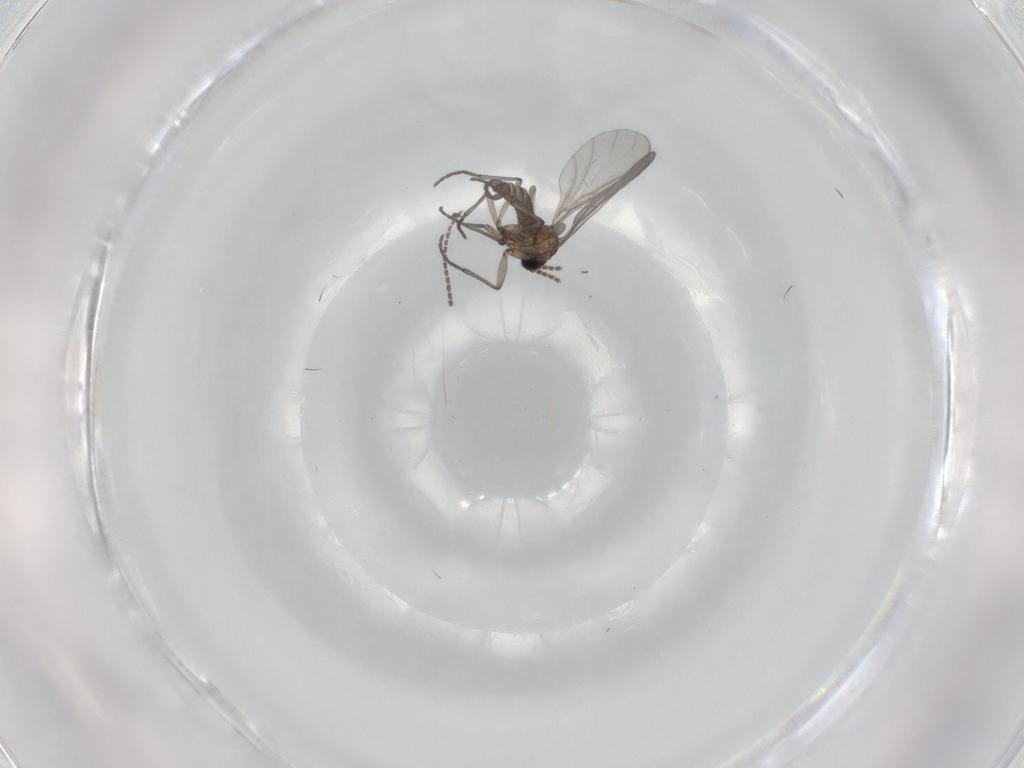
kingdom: Animalia
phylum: Arthropoda
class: Insecta
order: Diptera
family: Sciaridae
